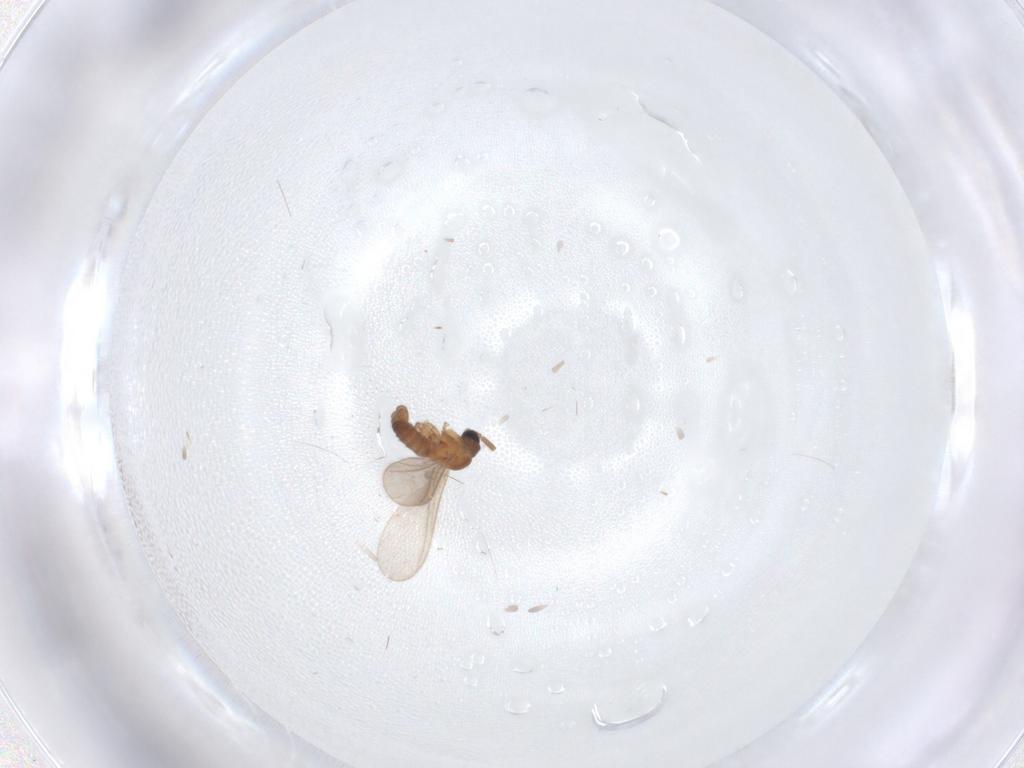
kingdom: Animalia
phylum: Arthropoda
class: Insecta
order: Diptera
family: Sciaridae
